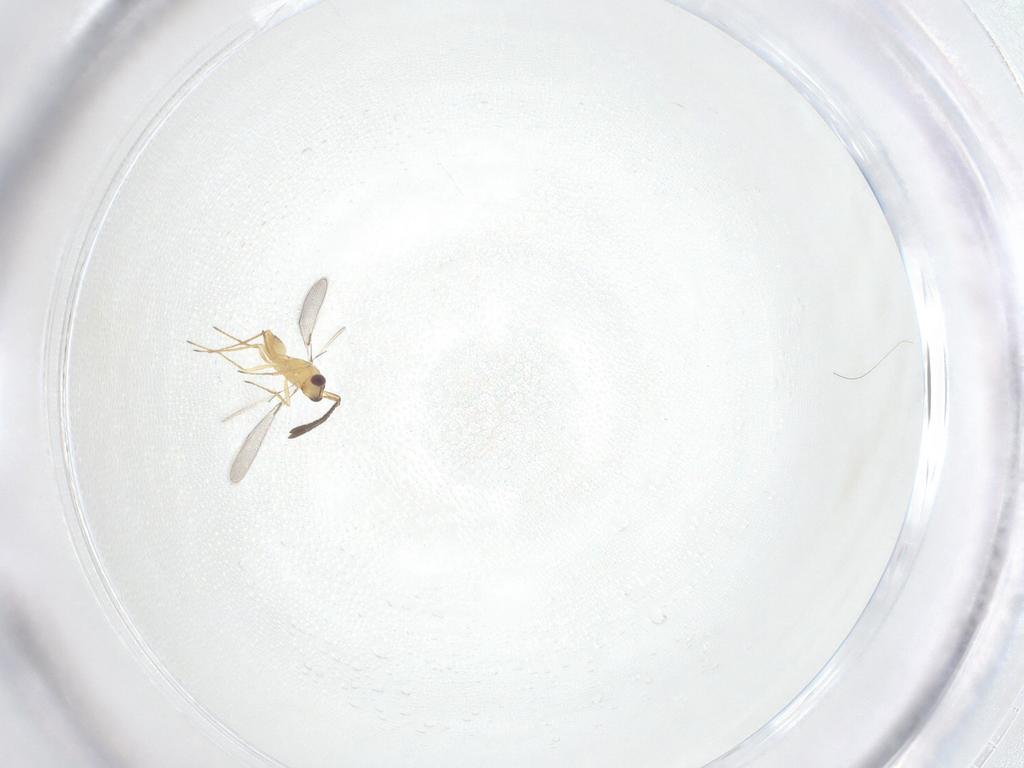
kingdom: Animalia
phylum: Arthropoda
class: Insecta
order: Hymenoptera
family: Mymaridae
